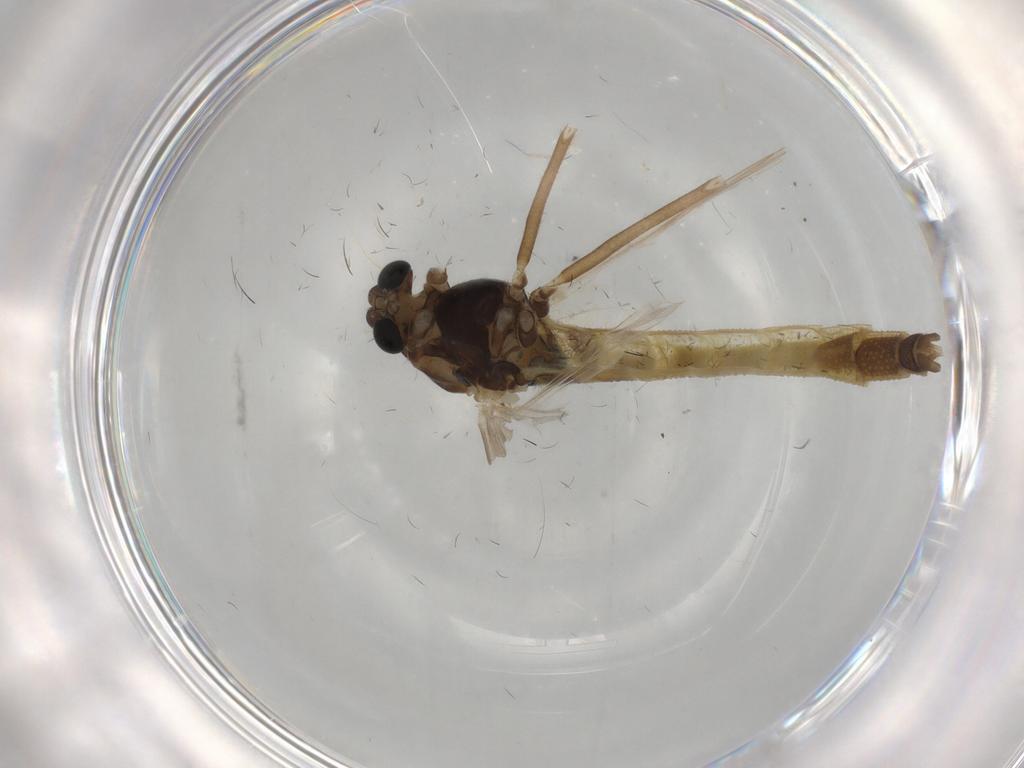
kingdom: Animalia
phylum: Arthropoda
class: Insecta
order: Diptera
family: Chironomidae
